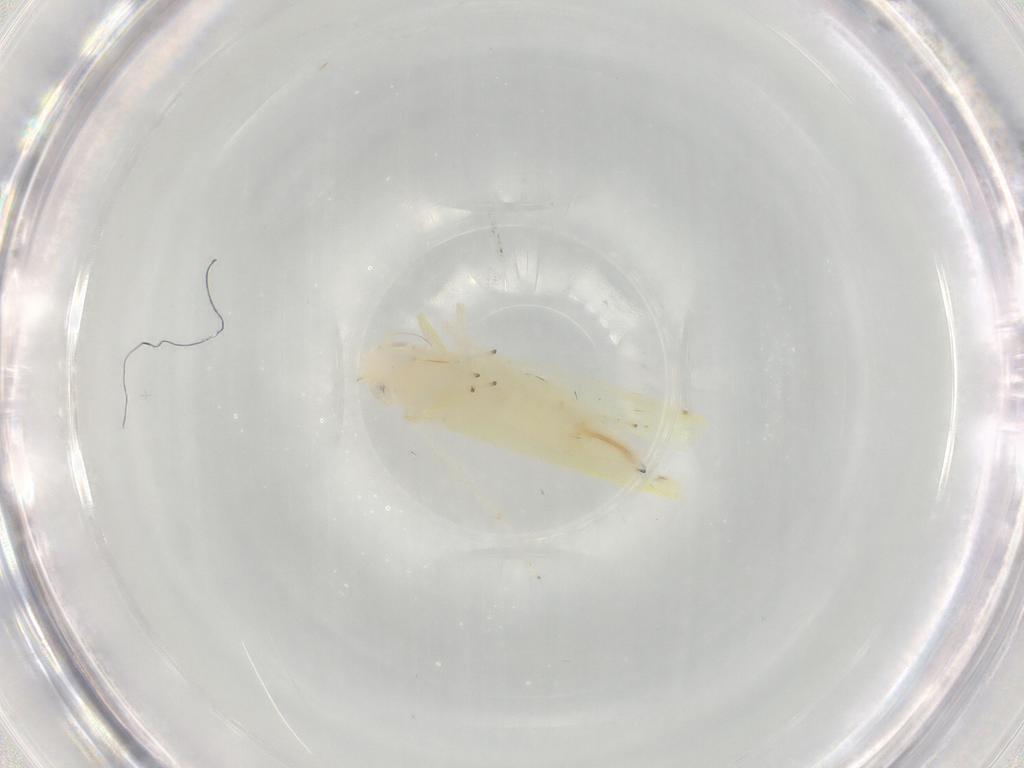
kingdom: Animalia
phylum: Arthropoda
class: Insecta
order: Hemiptera
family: Cicadellidae
